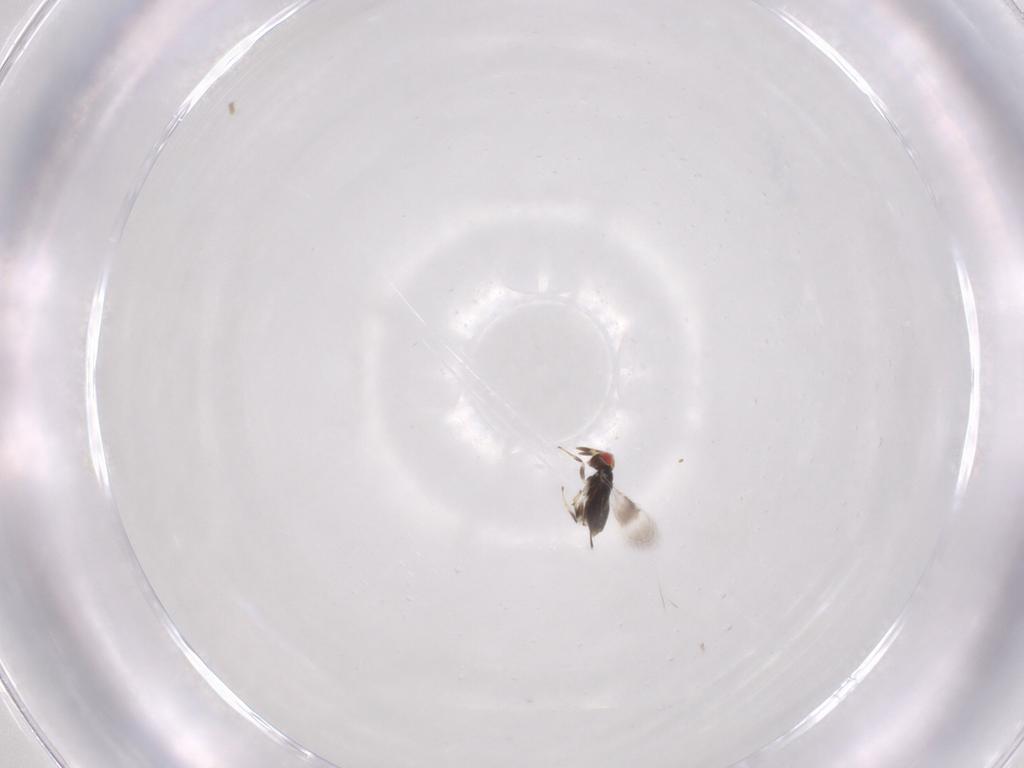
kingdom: Animalia
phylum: Arthropoda
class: Insecta
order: Hymenoptera
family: Azotidae
